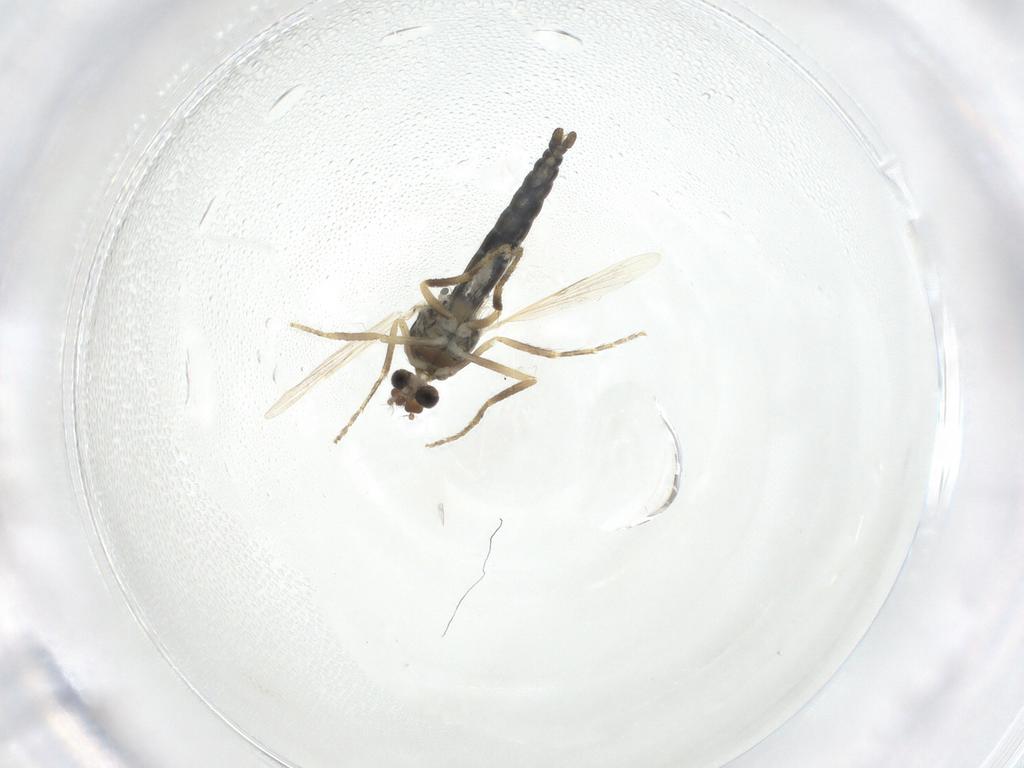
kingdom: Animalia
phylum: Arthropoda
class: Insecta
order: Diptera
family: Ceratopogonidae
